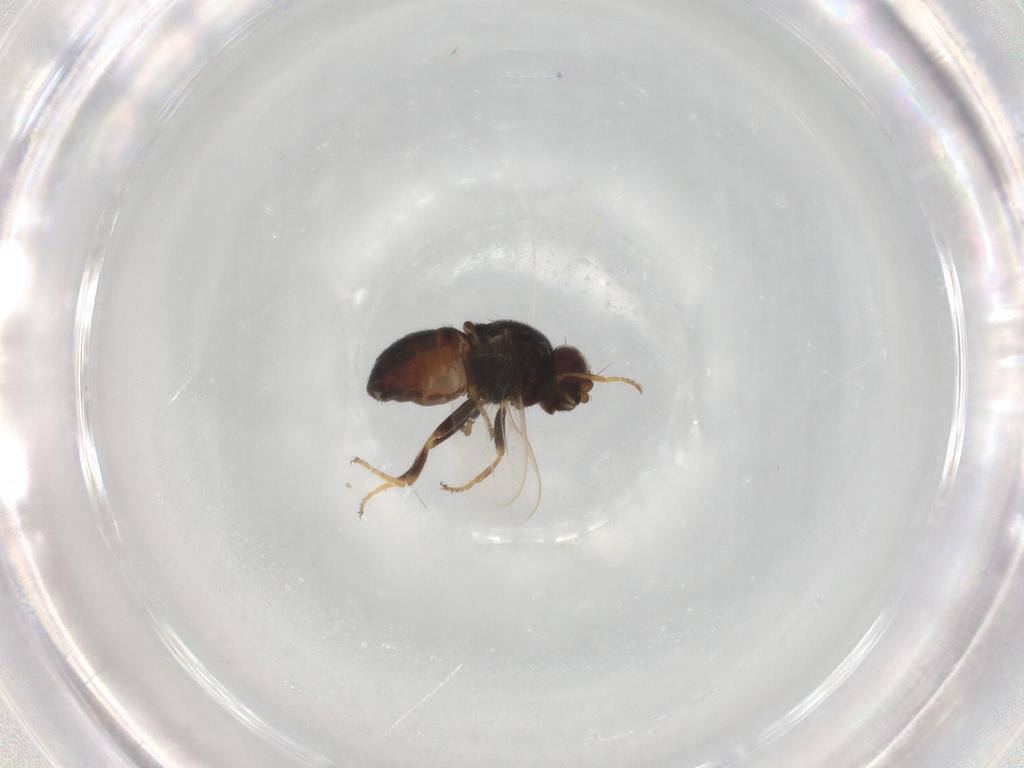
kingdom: Animalia
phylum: Arthropoda
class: Insecta
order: Diptera
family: Chloropidae
